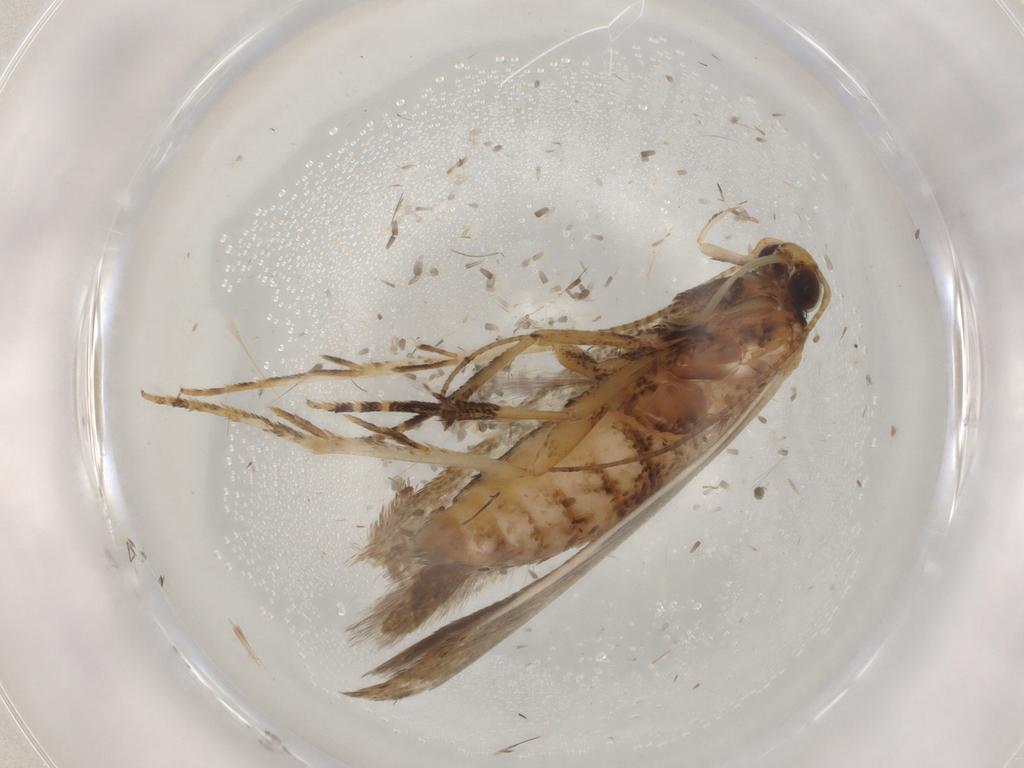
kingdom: Animalia
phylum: Arthropoda
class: Insecta
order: Lepidoptera
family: Gelechiidae
